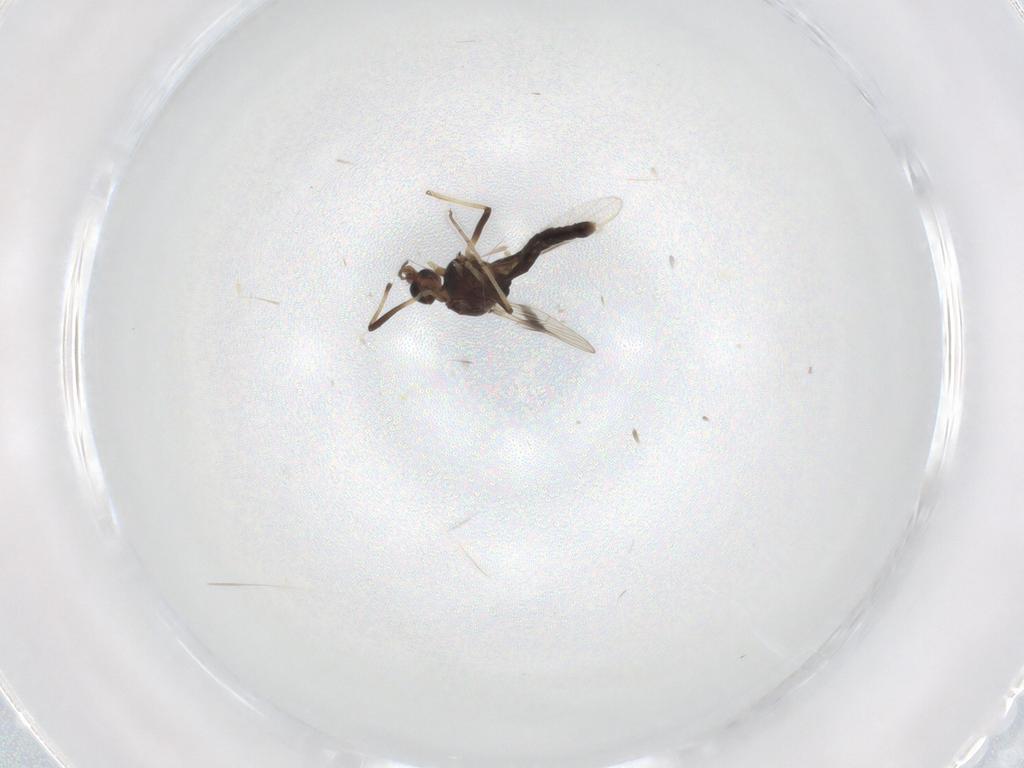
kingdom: Animalia
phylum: Arthropoda
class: Insecta
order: Diptera
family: Chironomidae
